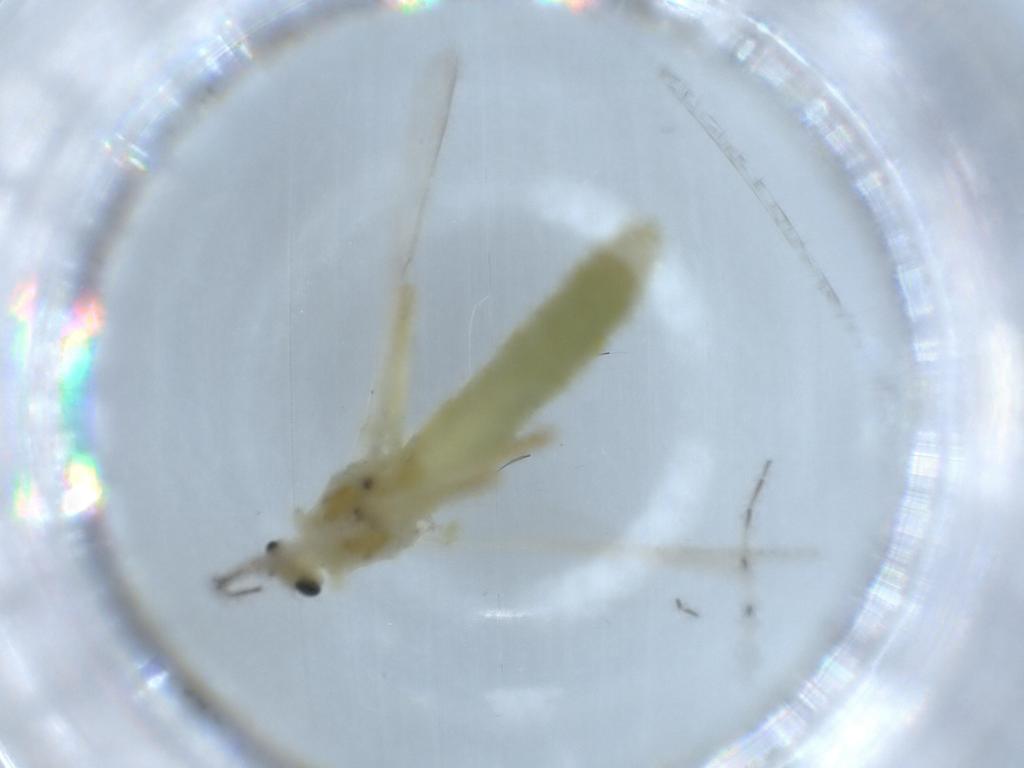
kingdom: Animalia
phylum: Arthropoda
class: Insecta
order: Diptera
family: Chironomidae
